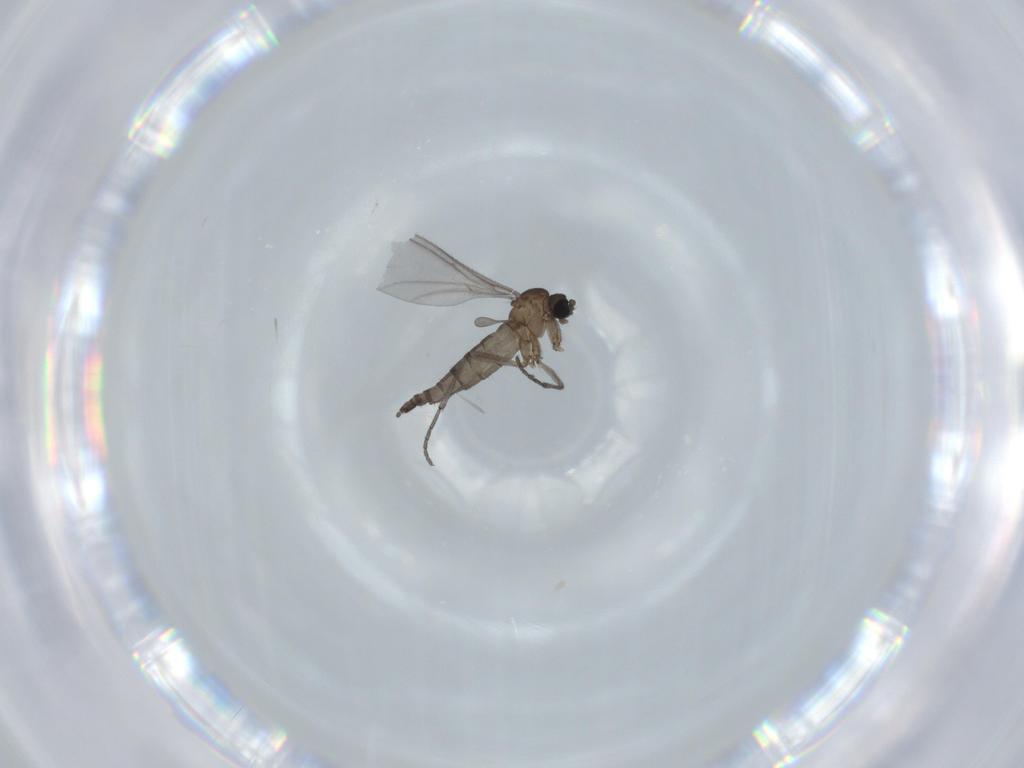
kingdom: Animalia
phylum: Arthropoda
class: Insecta
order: Diptera
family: Sciaridae
